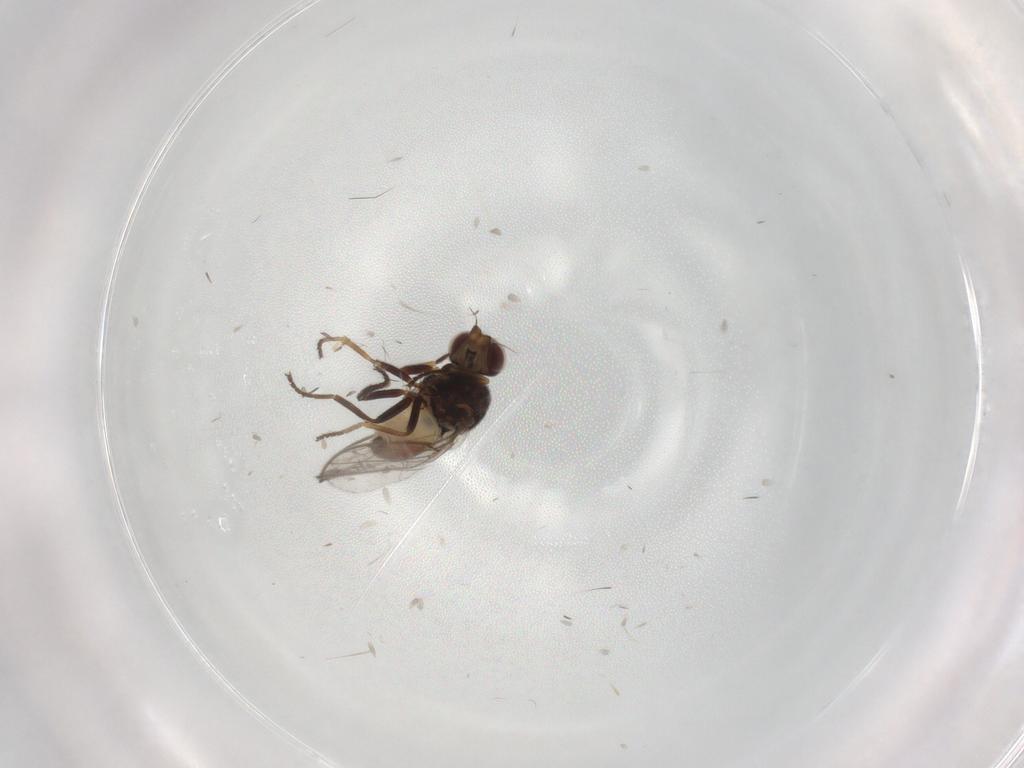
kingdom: Animalia
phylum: Arthropoda
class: Insecta
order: Diptera
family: Chloropidae
